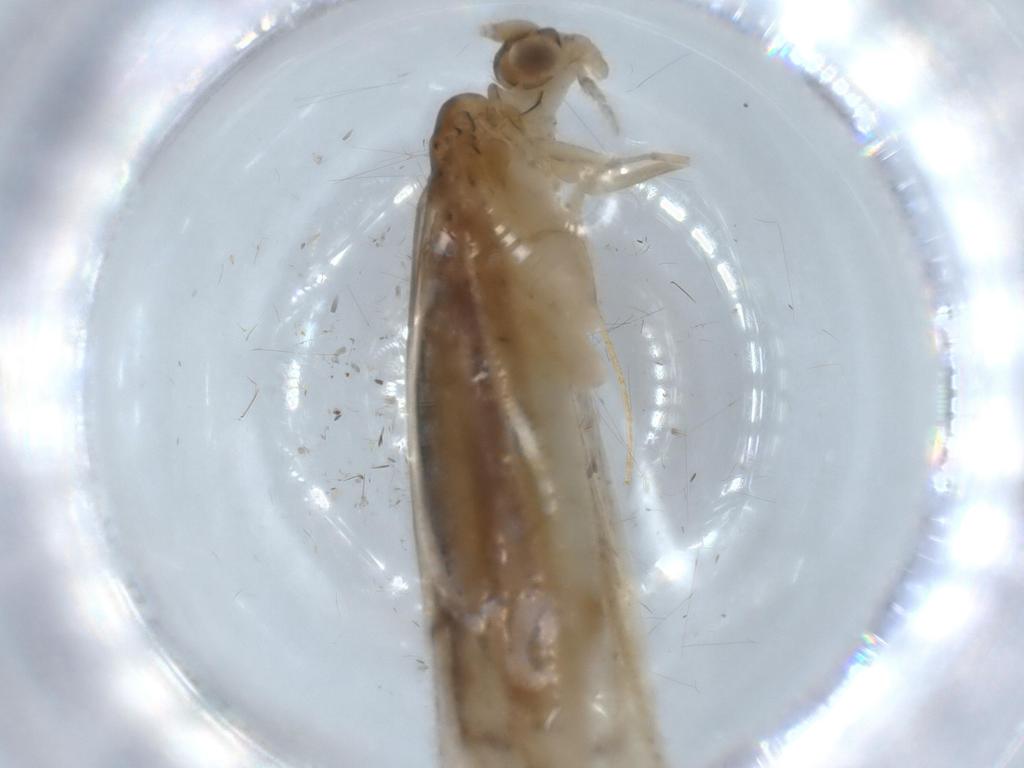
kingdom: Animalia
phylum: Arthropoda
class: Insecta
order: Trichoptera
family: Leptoceridae
